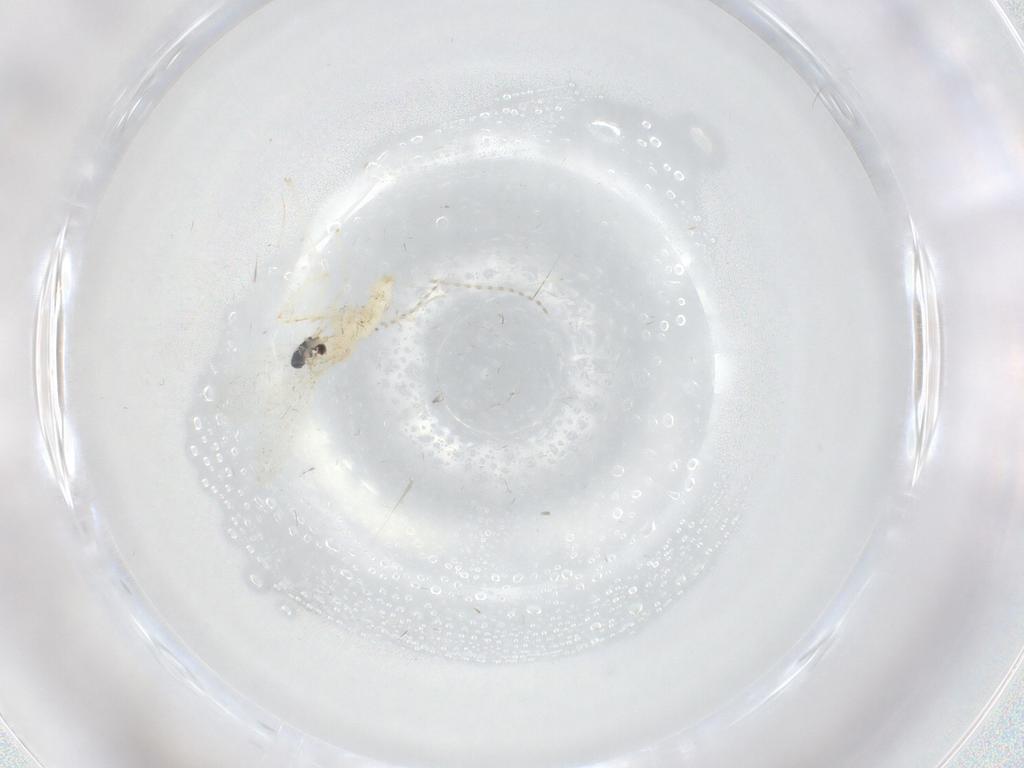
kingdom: Animalia
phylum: Arthropoda
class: Insecta
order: Diptera
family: Cecidomyiidae
